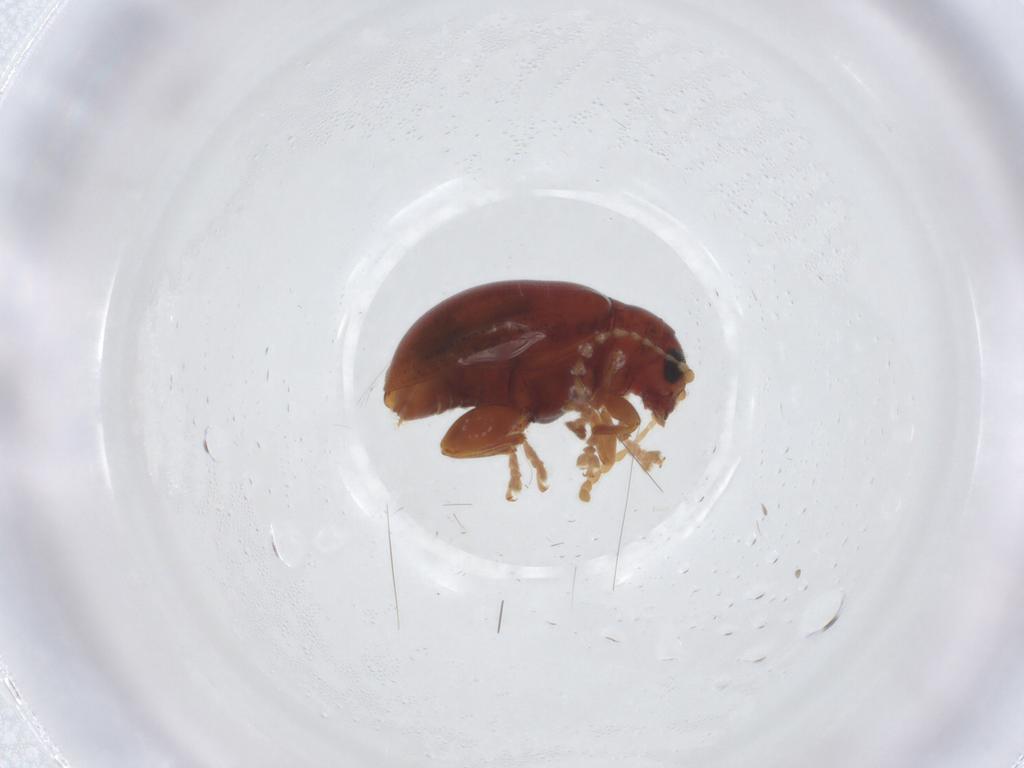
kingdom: Animalia
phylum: Arthropoda
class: Insecta
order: Coleoptera
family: Chrysomelidae
